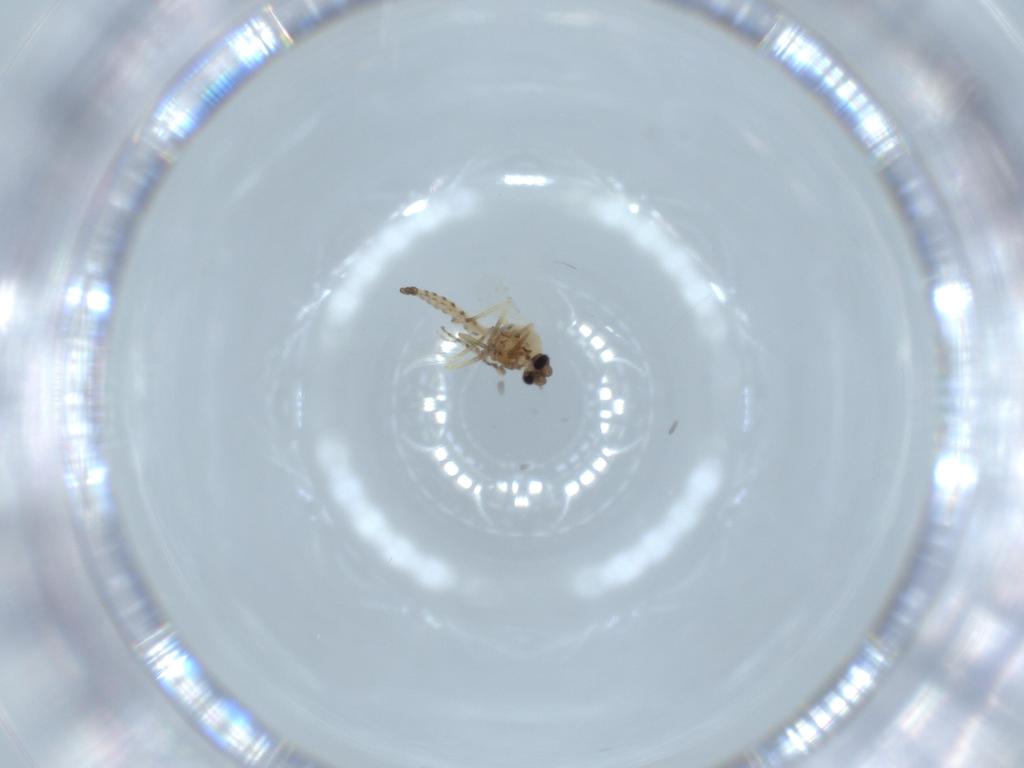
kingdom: Animalia
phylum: Arthropoda
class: Insecta
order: Diptera
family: Ceratopogonidae
